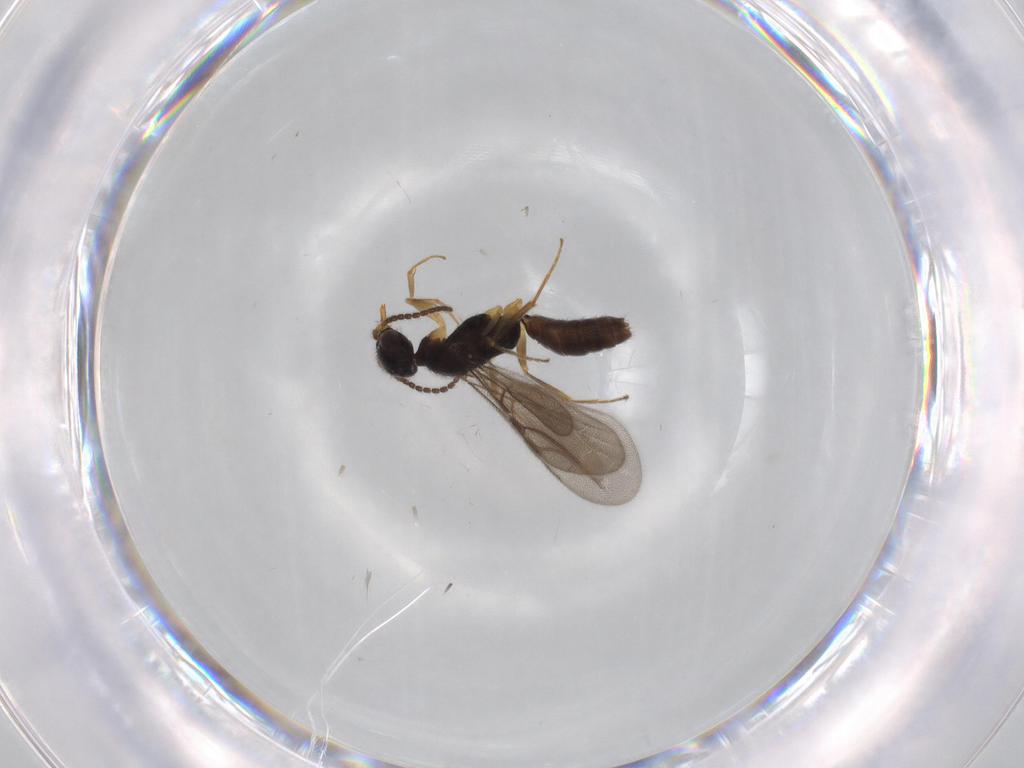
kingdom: Animalia
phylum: Arthropoda
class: Insecta
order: Hymenoptera
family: Bethylidae
